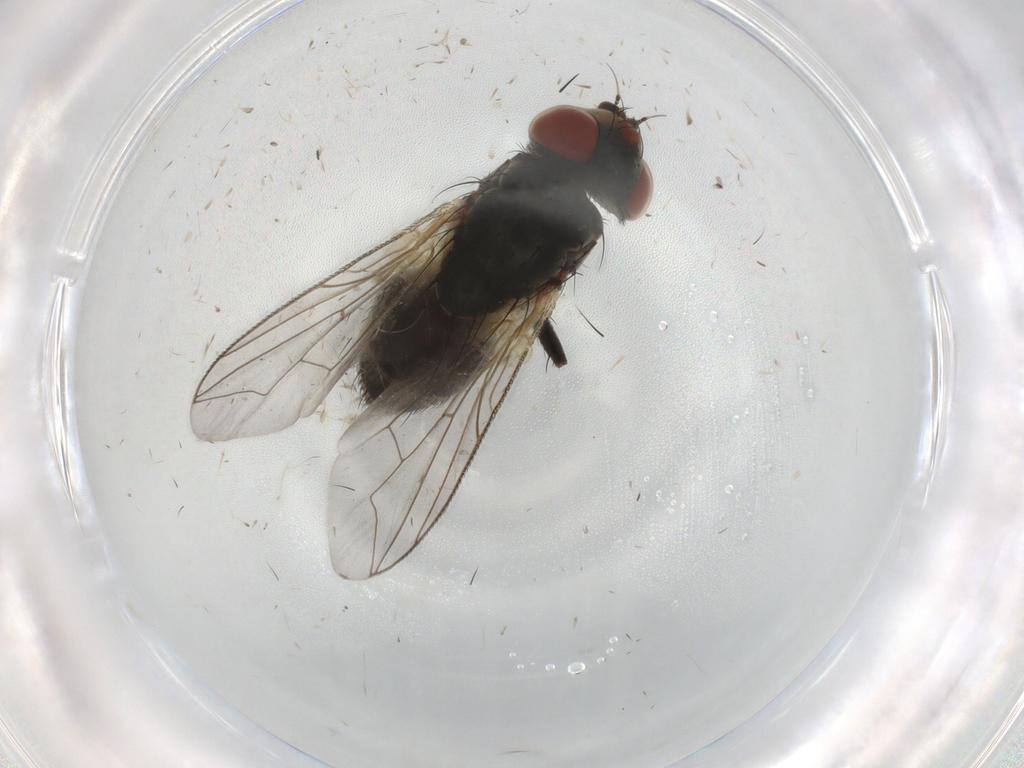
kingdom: Animalia
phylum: Arthropoda
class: Insecta
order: Diptera
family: Sarcophagidae
